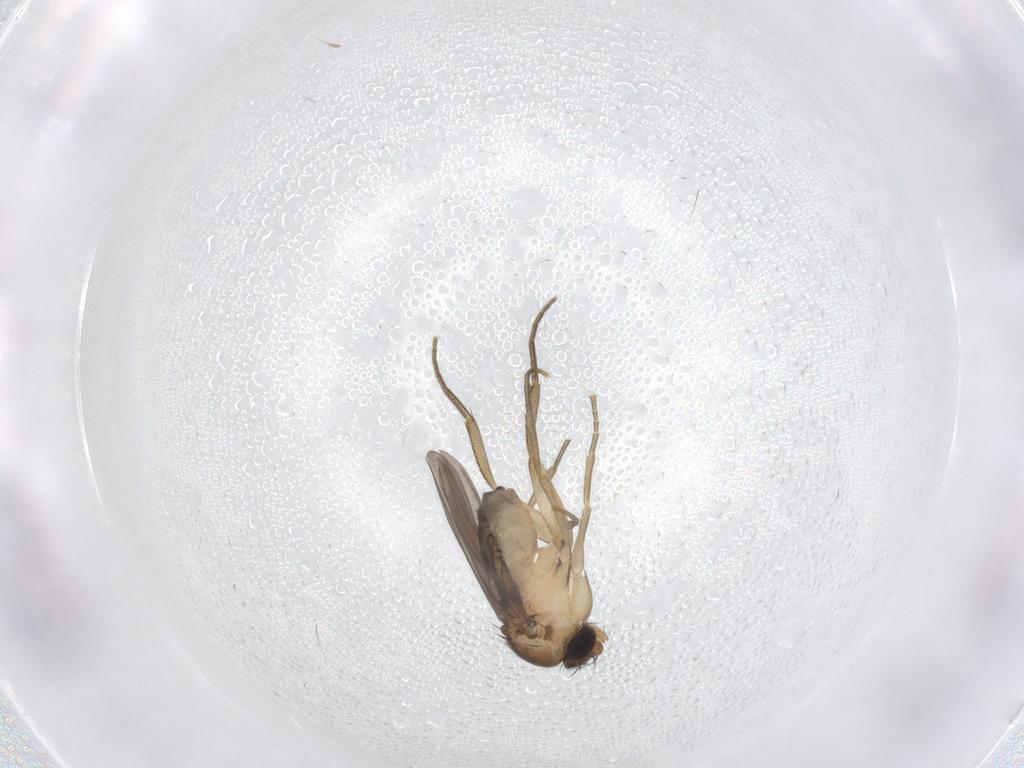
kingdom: Animalia
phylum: Arthropoda
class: Insecta
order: Diptera
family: Phoridae
